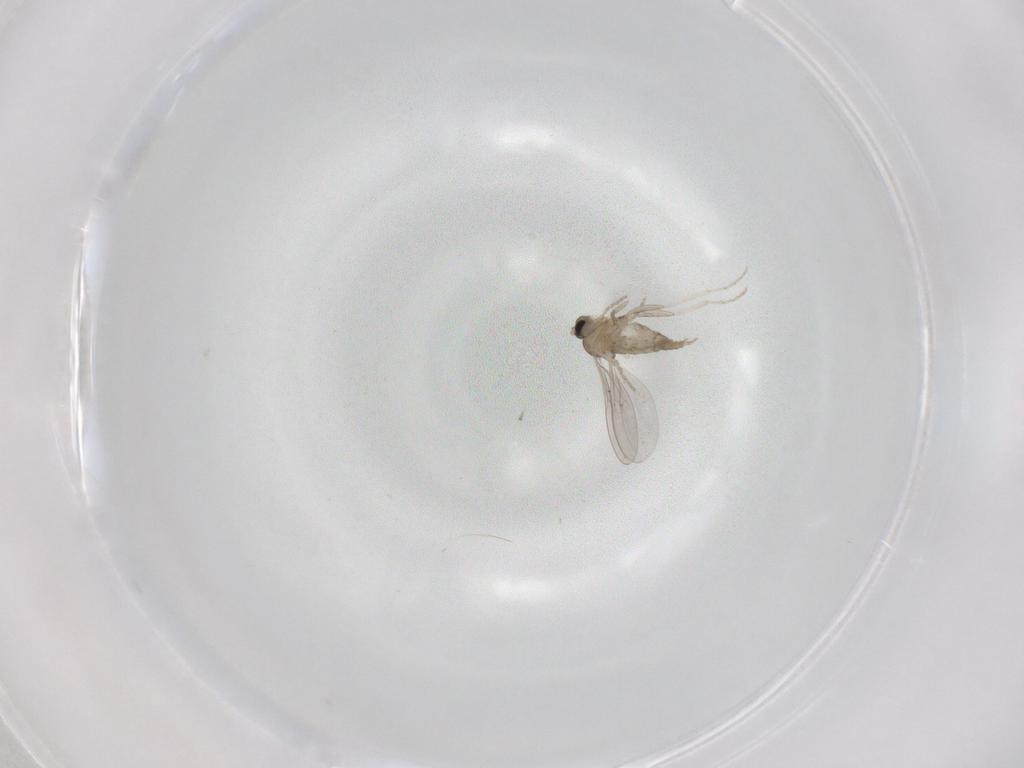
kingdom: Animalia
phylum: Arthropoda
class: Insecta
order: Diptera
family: Cecidomyiidae
